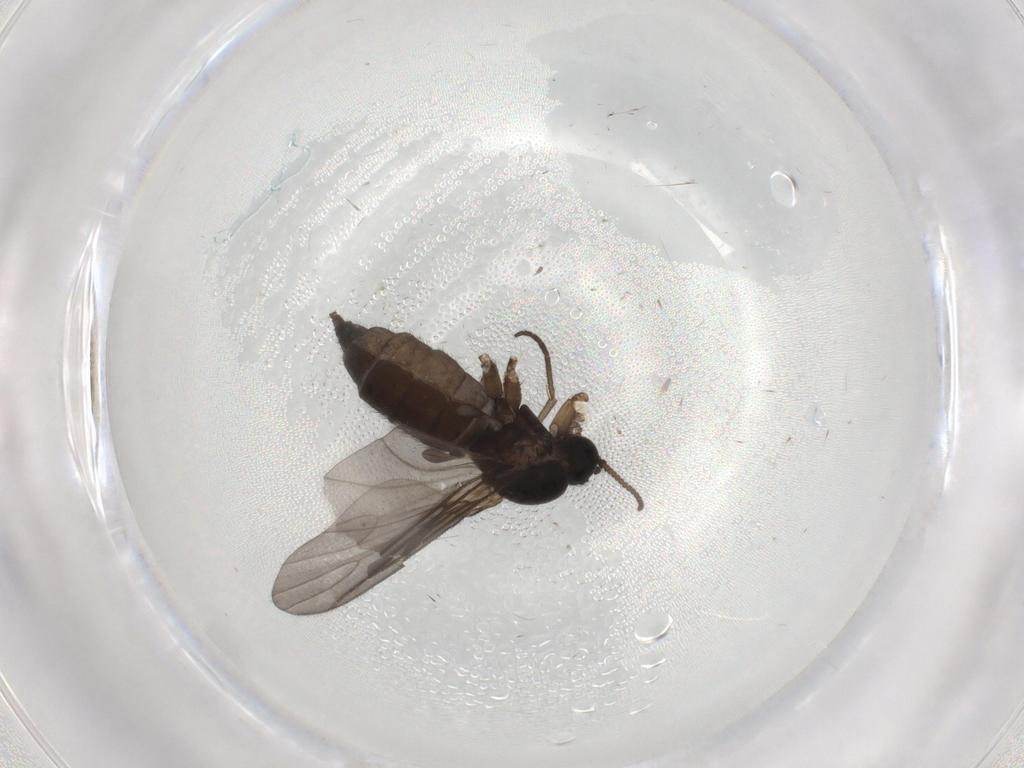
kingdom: Animalia
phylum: Arthropoda
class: Insecta
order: Diptera
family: Sciaridae
